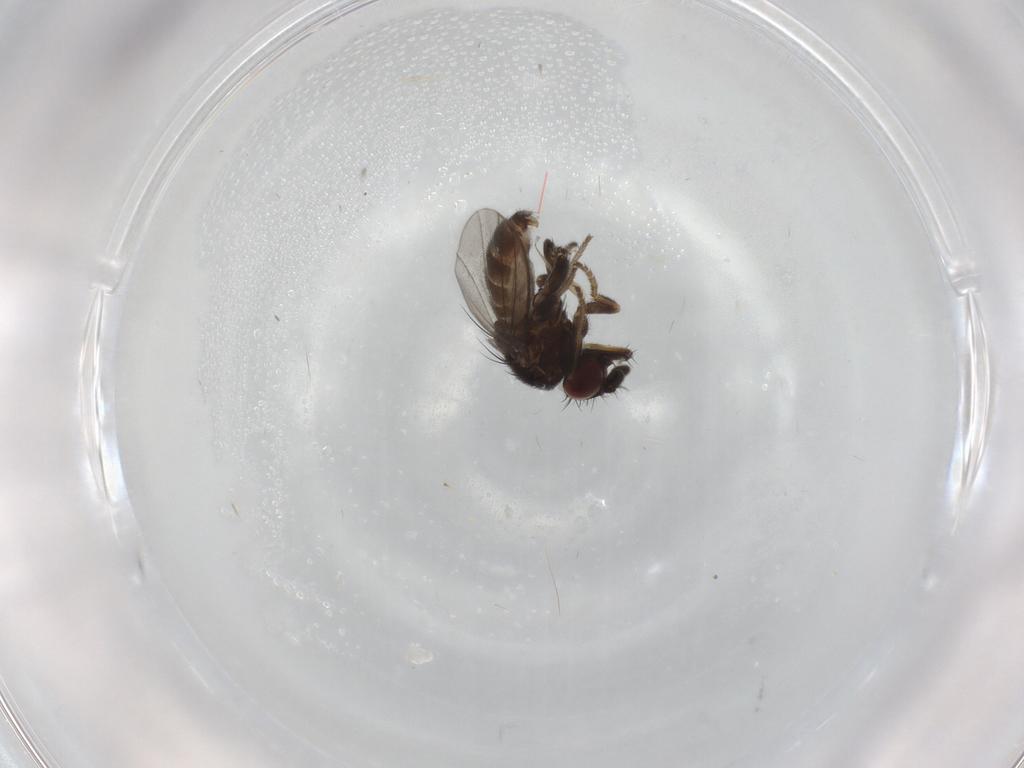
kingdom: Animalia
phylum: Arthropoda
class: Insecta
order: Diptera
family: Milichiidae
